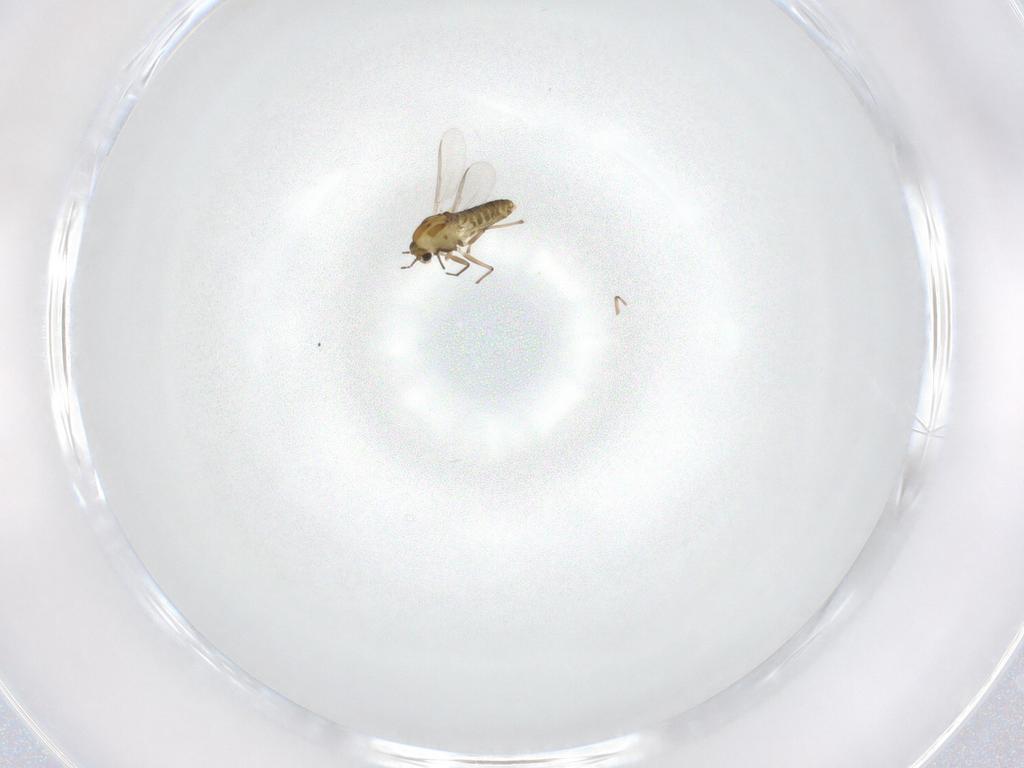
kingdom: Animalia
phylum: Arthropoda
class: Insecta
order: Diptera
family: Chironomidae
